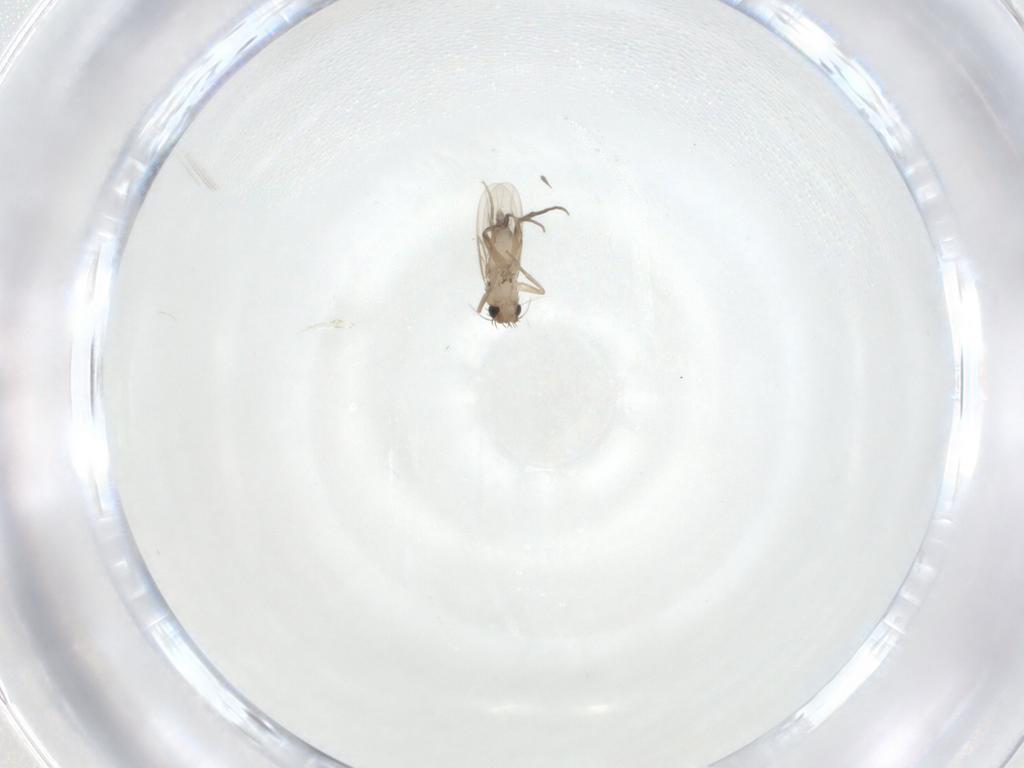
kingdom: Animalia
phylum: Arthropoda
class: Insecta
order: Diptera
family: Phoridae
